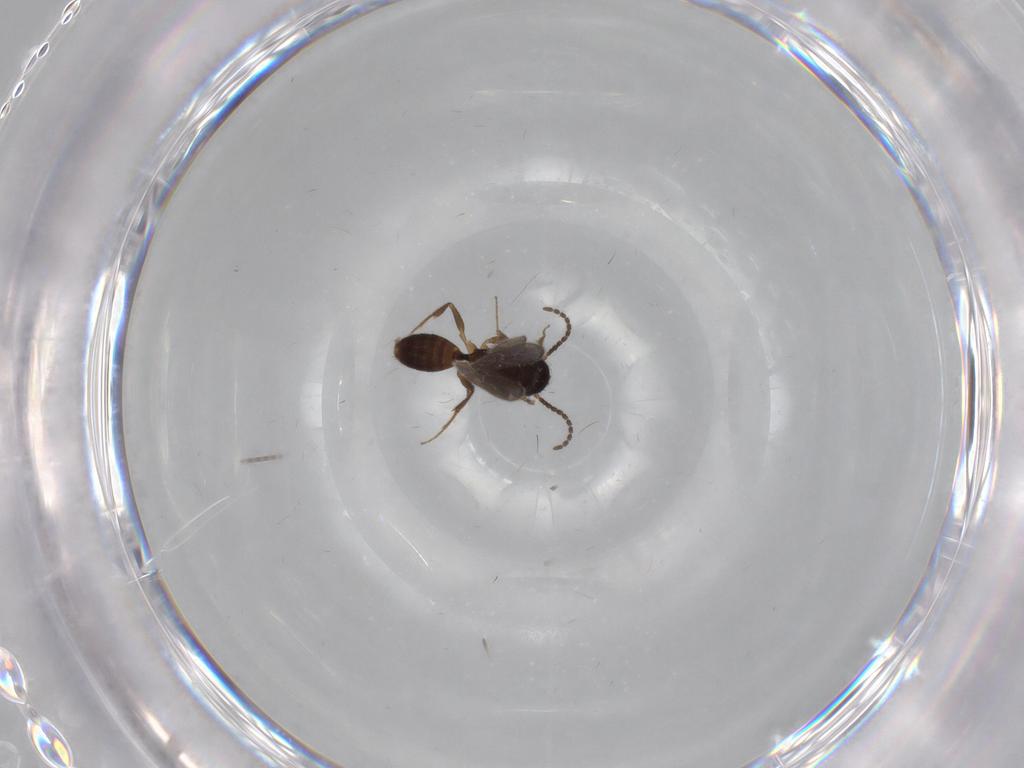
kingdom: Animalia
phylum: Arthropoda
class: Insecta
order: Hymenoptera
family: Bethylidae
